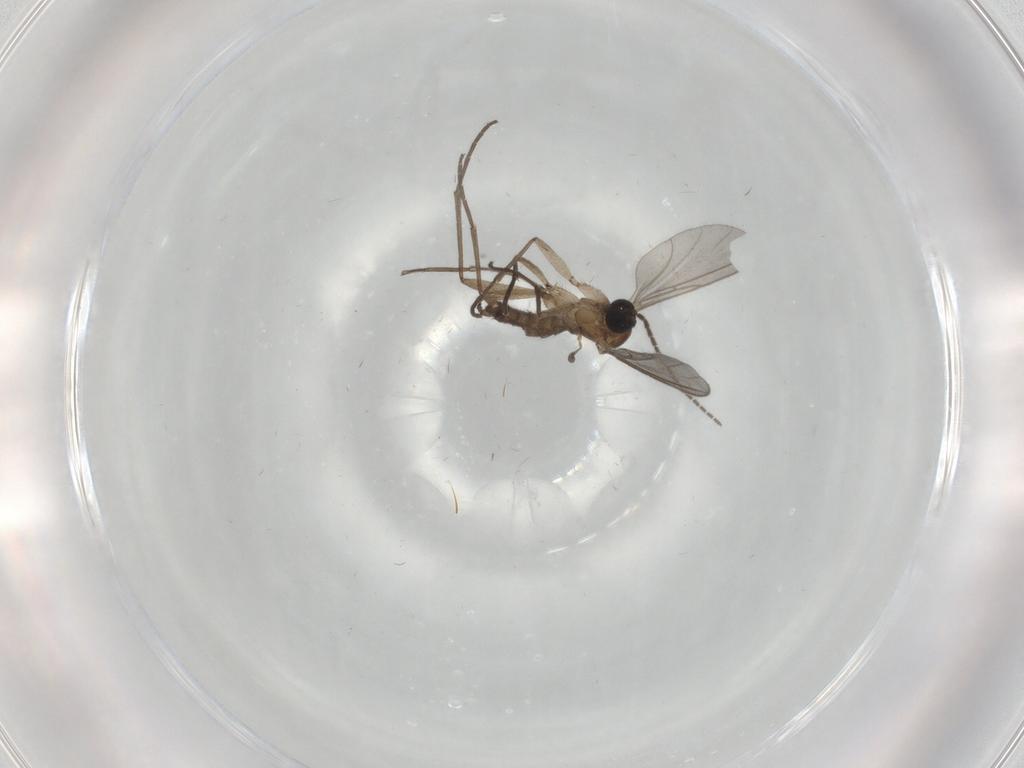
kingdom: Animalia
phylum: Arthropoda
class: Insecta
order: Diptera
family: Sciaridae
